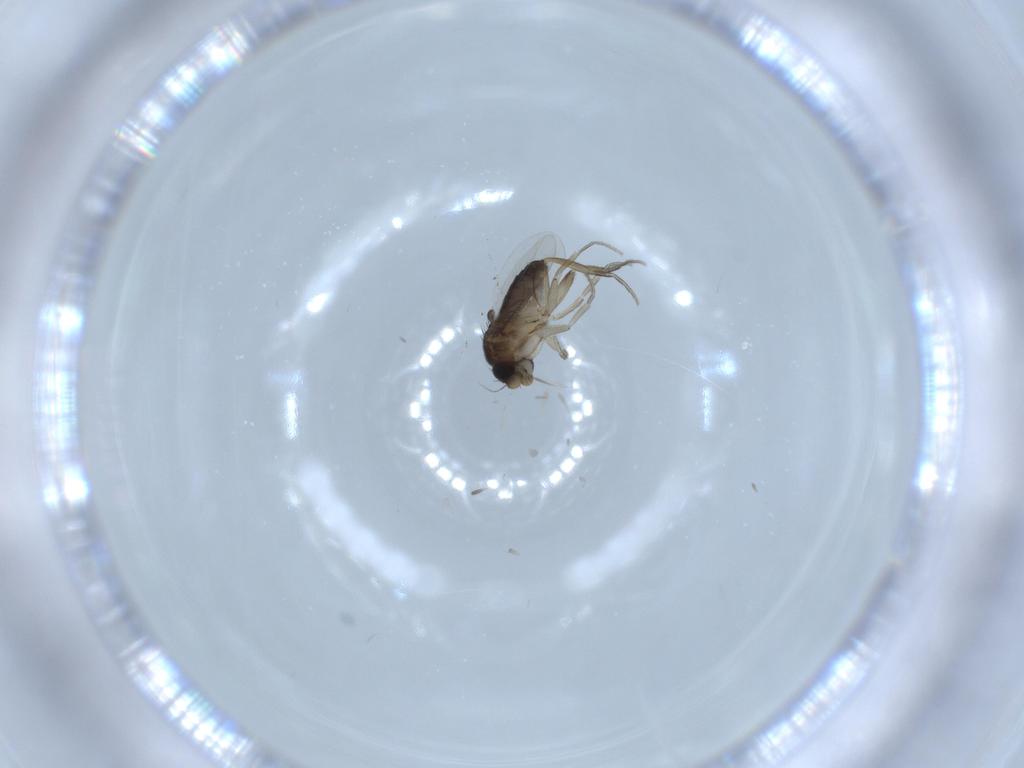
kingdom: Animalia
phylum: Arthropoda
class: Insecta
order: Diptera
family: Phoridae
